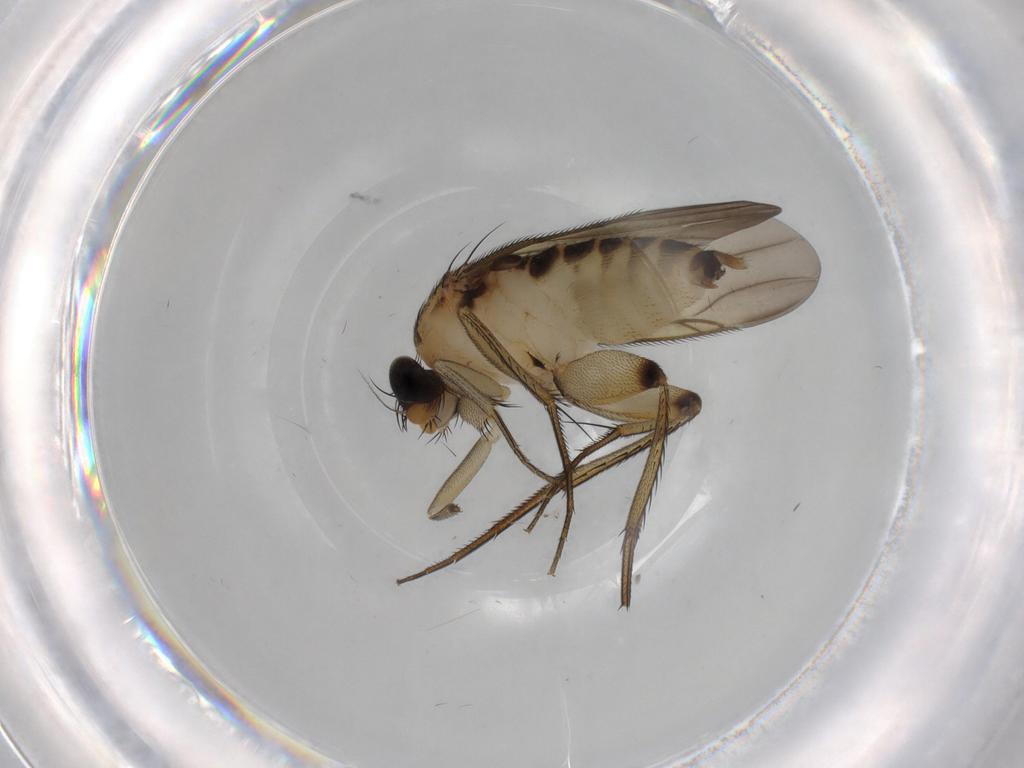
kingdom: Animalia
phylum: Arthropoda
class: Insecta
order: Diptera
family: Phoridae
